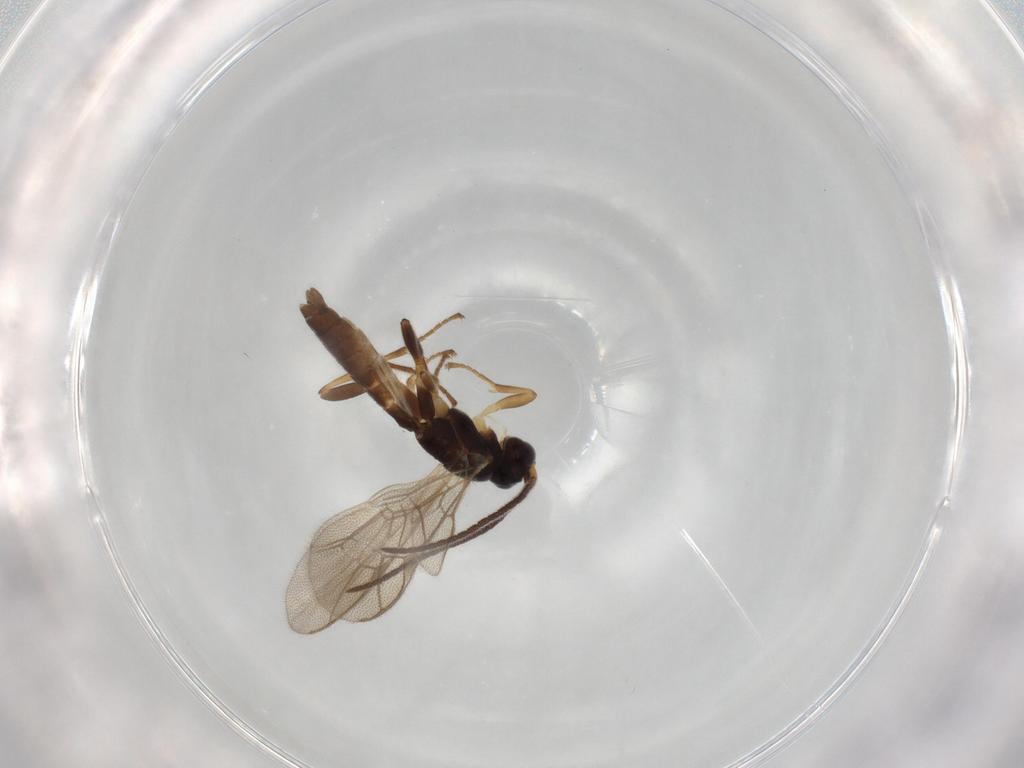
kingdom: Animalia
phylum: Arthropoda
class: Insecta
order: Hymenoptera
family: Ichneumonidae
